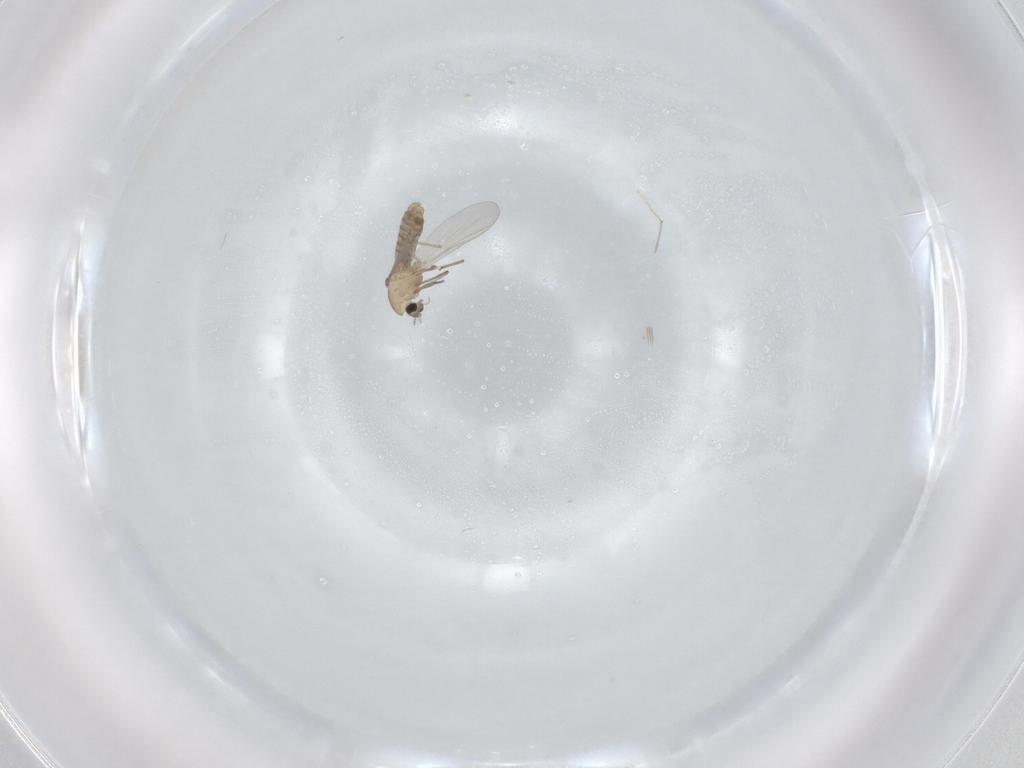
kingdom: Animalia
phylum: Arthropoda
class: Insecta
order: Diptera
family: Chironomidae
